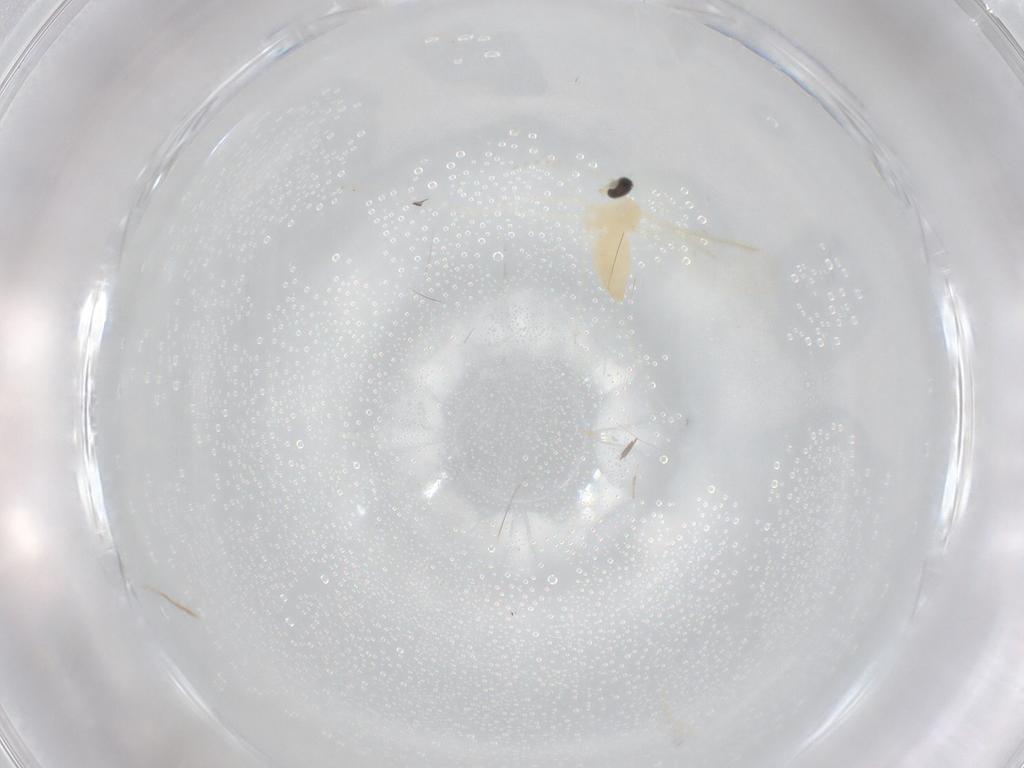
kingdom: Animalia
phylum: Arthropoda
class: Insecta
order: Diptera
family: Cecidomyiidae
